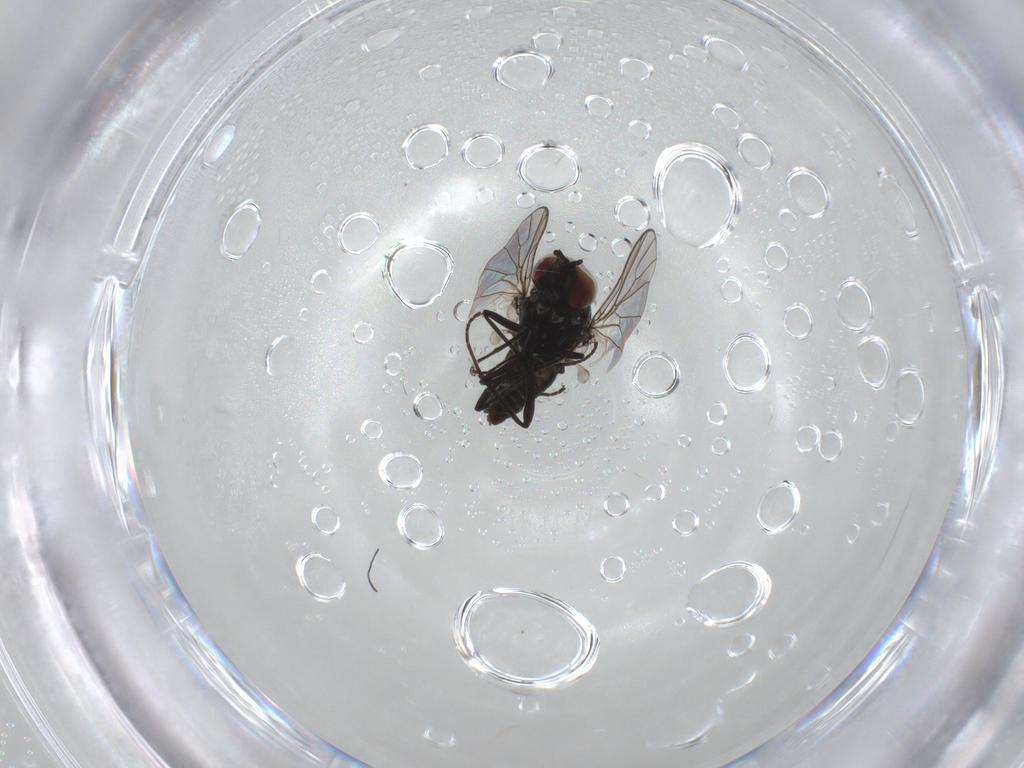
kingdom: Animalia
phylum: Arthropoda
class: Insecta
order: Diptera
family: Bombyliidae
